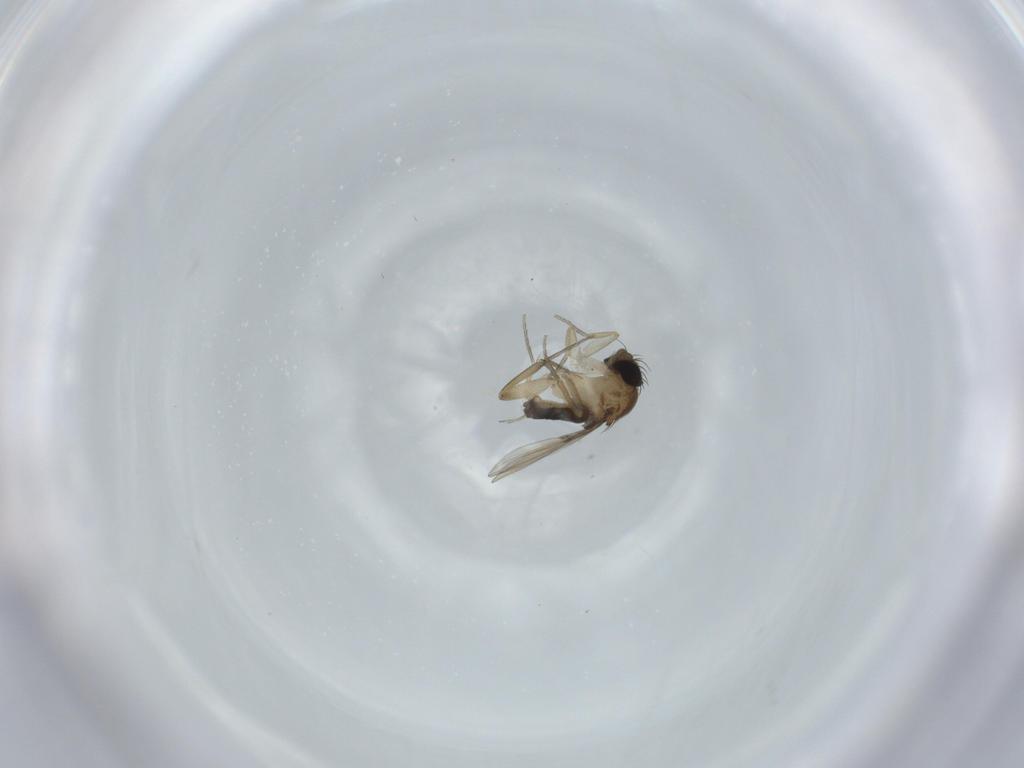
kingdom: Animalia
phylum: Arthropoda
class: Insecta
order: Diptera
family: Phoridae
